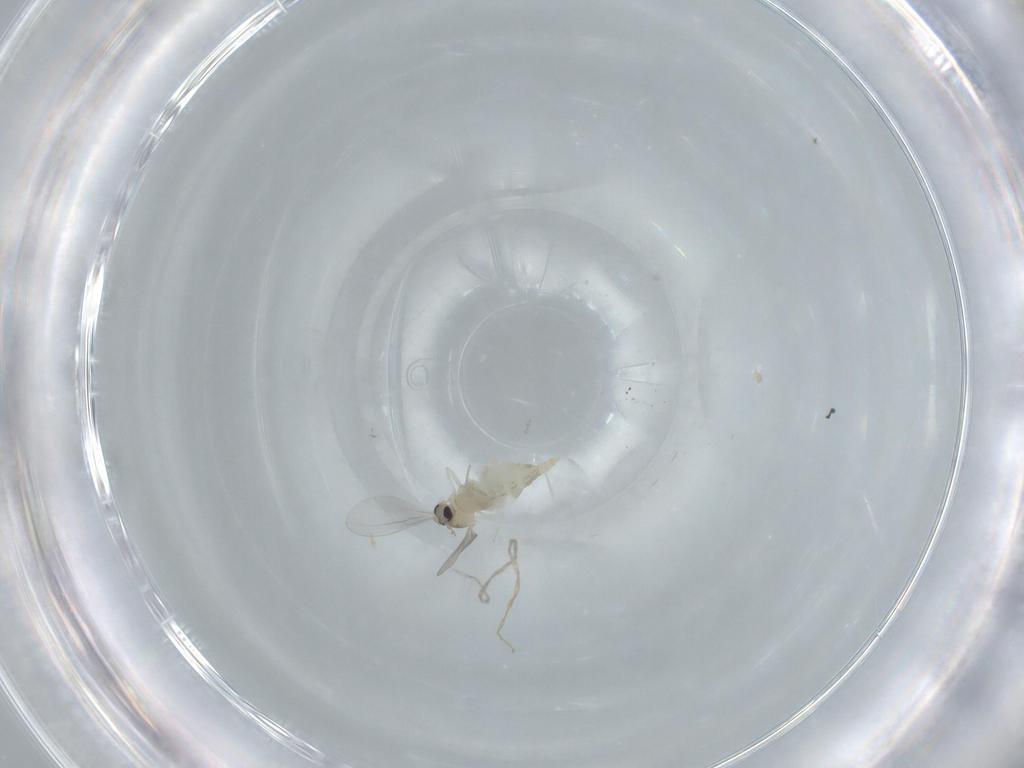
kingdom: Animalia
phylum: Arthropoda
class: Insecta
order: Diptera
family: Cecidomyiidae
